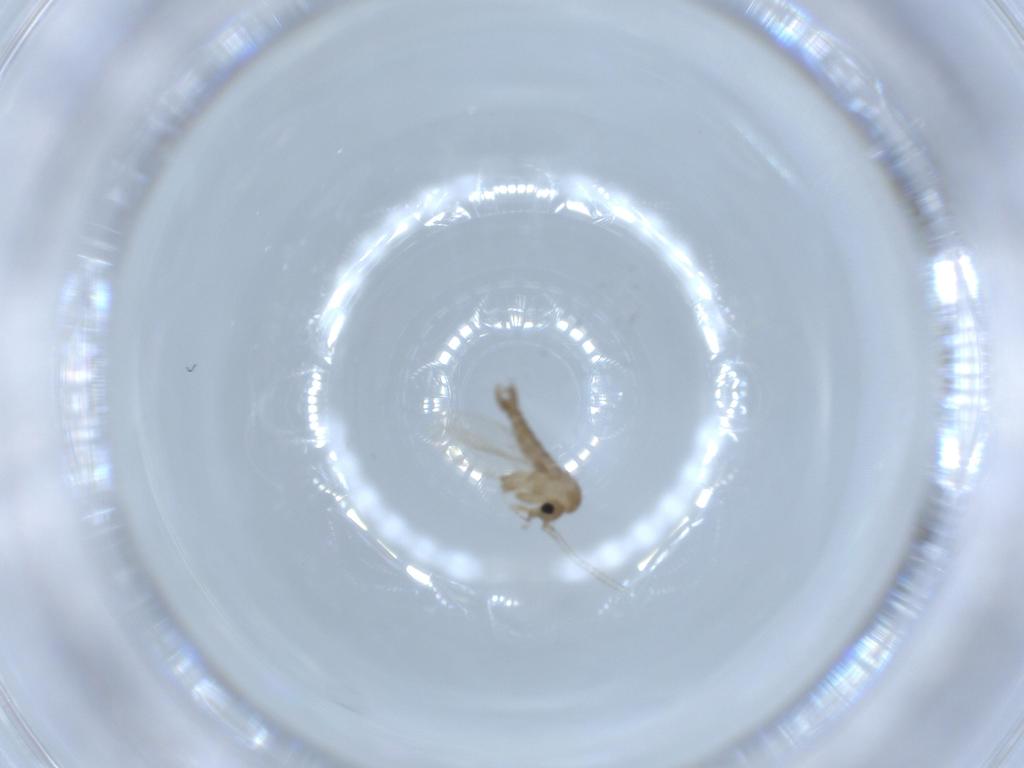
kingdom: Animalia
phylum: Arthropoda
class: Insecta
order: Diptera
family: Psychodidae
